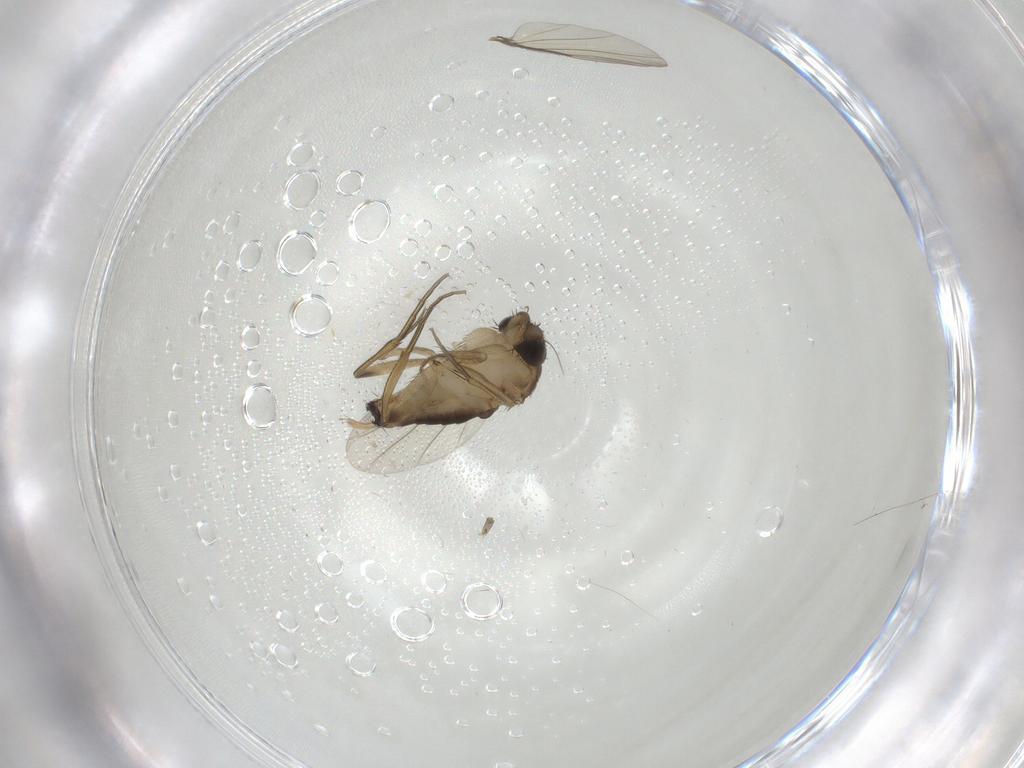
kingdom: Animalia
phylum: Arthropoda
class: Insecta
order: Diptera
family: Phoridae
